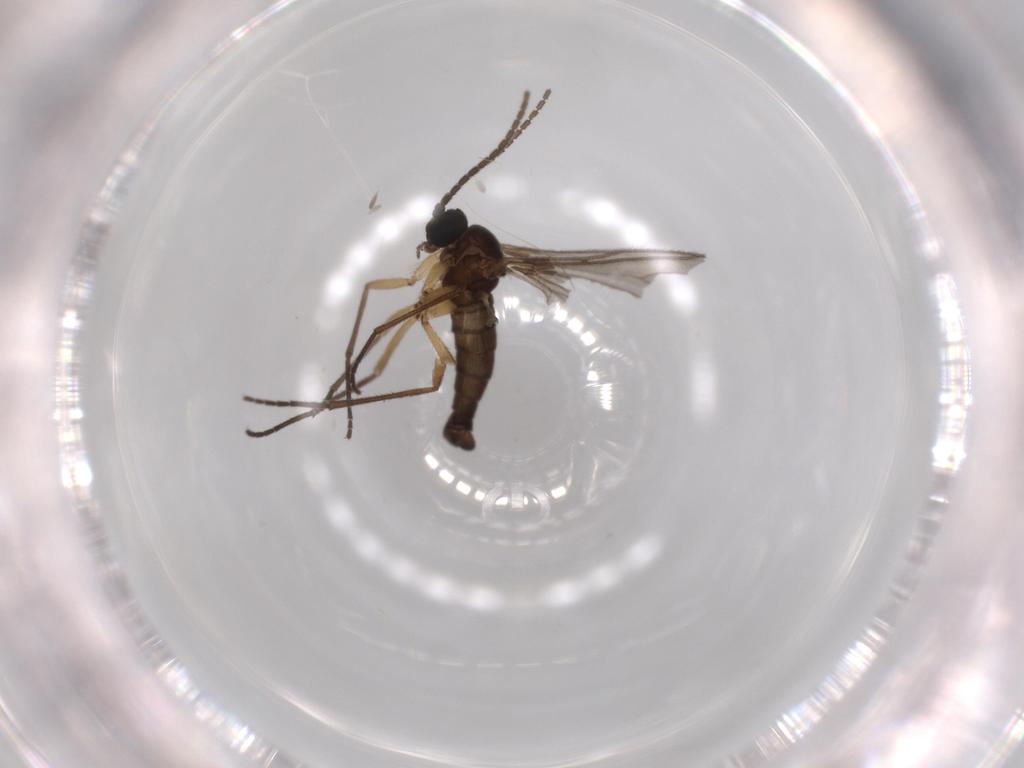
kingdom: Animalia
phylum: Arthropoda
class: Insecta
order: Diptera
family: Sciaridae
